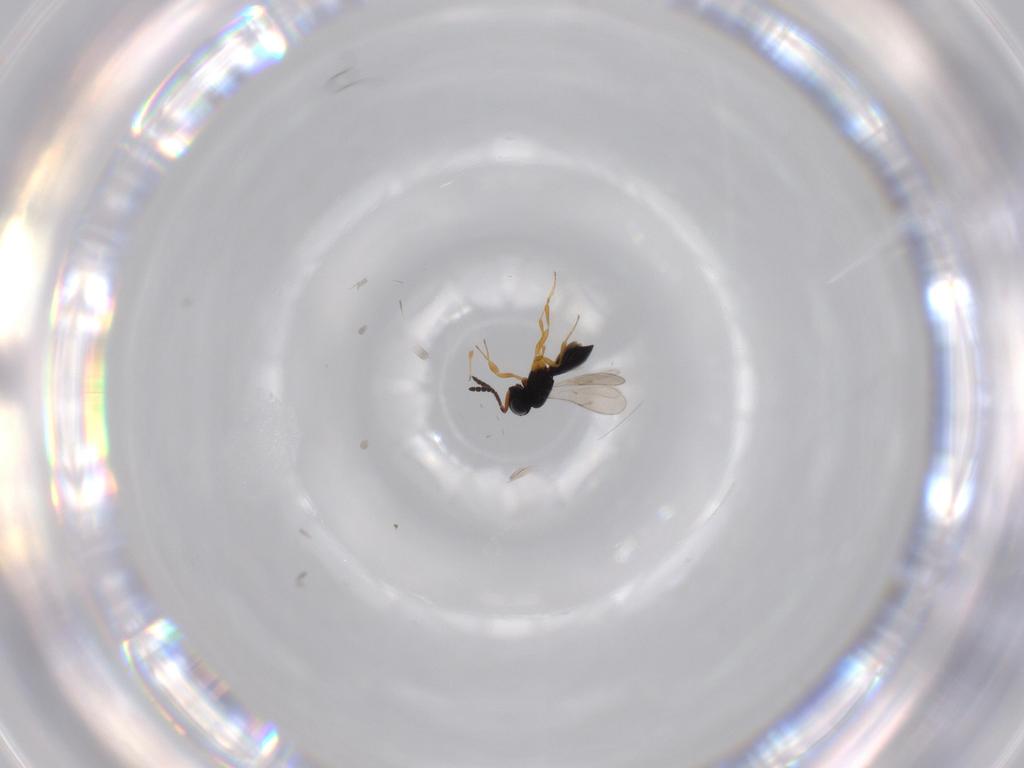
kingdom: Animalia
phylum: Arthropoda
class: Insecta
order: Hymenoptera
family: Scelionidae
